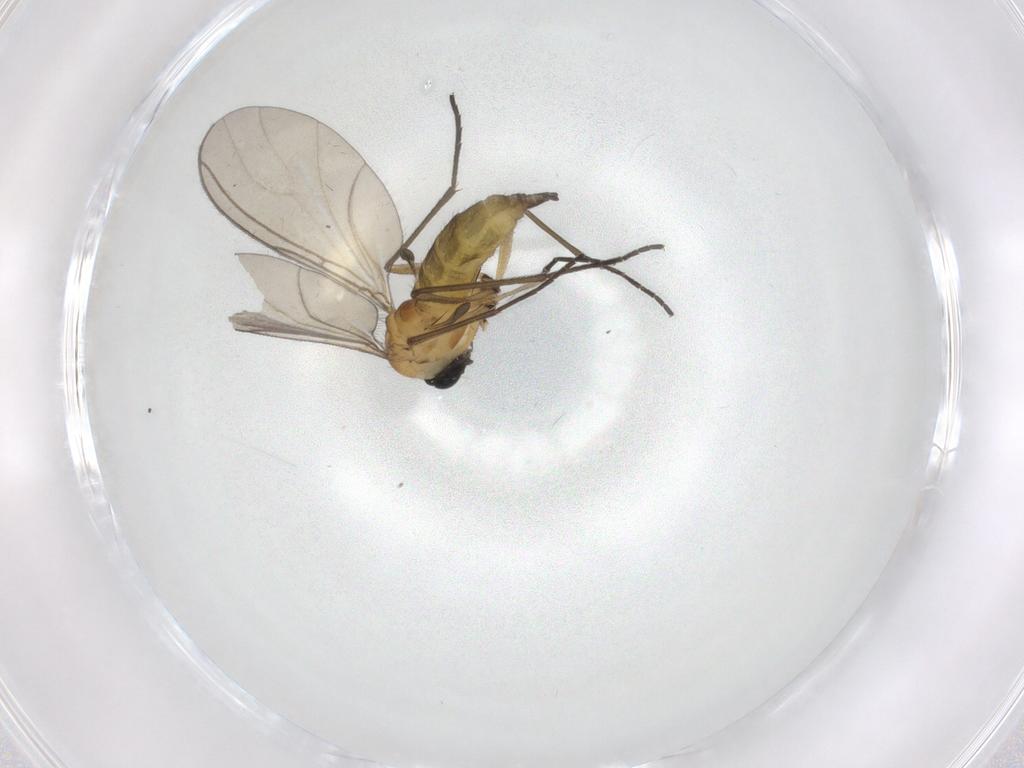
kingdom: Animalia
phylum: Arthropoda
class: Insecta
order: Diptera
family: Sciaridae
